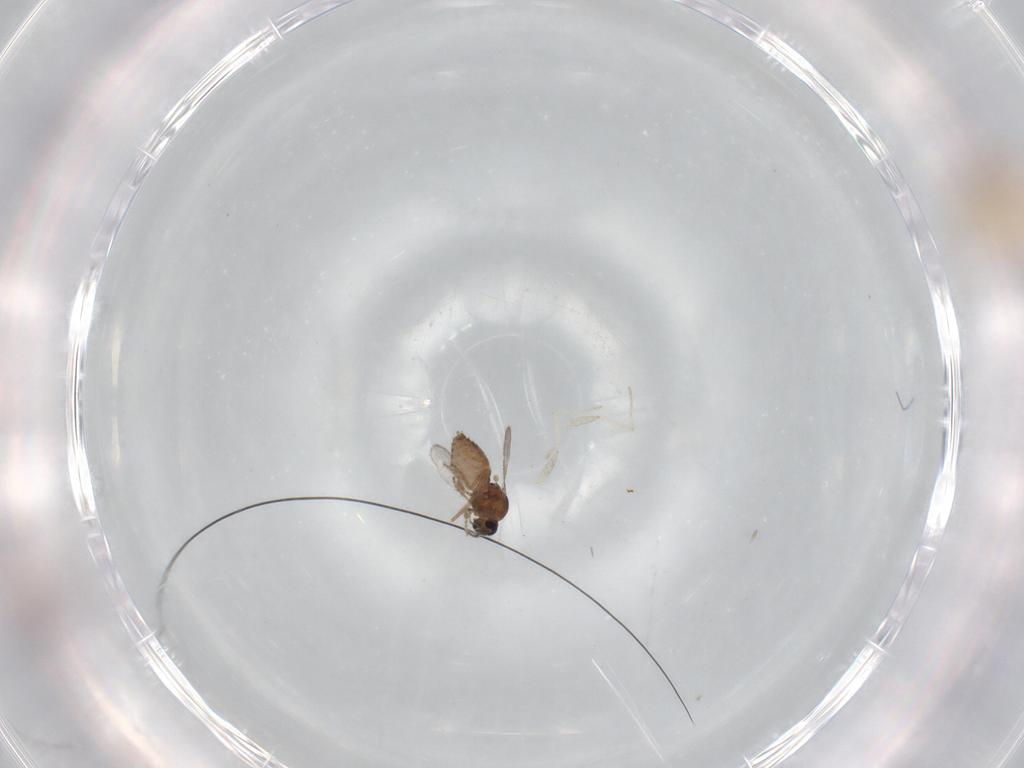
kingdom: Animalia
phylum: Arthropoda
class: Insecta
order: Diptera
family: Ceratopogonidae
